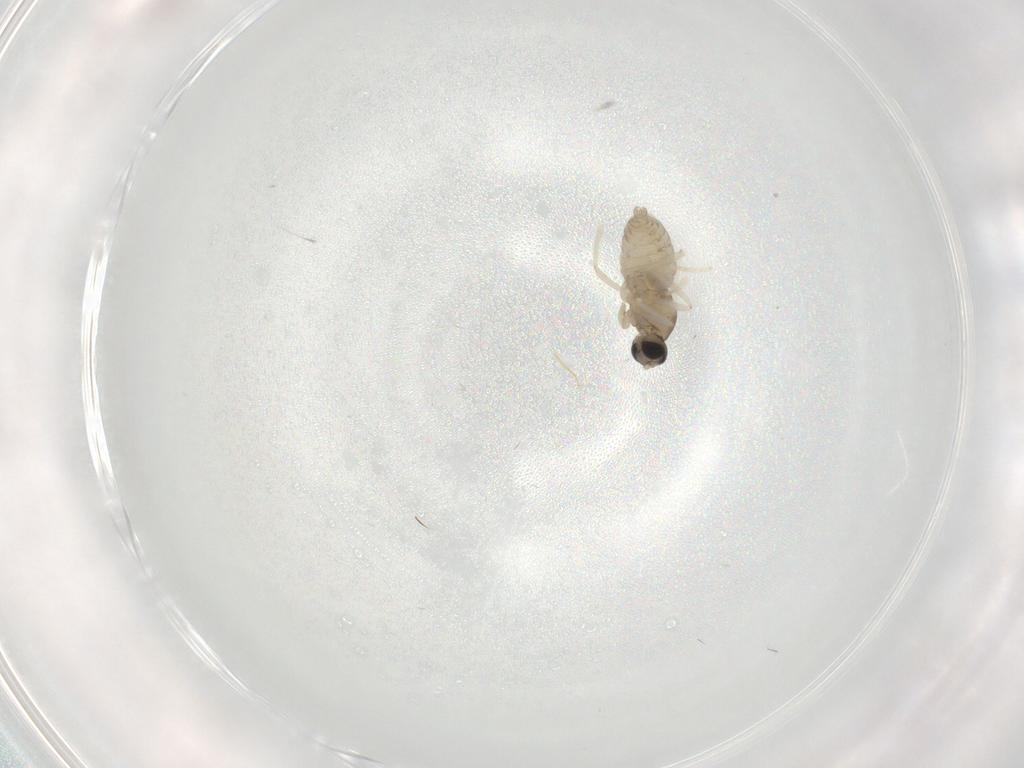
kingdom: Animalia
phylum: Arthropoda
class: Insecta
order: Diptera
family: Cecidomyiidae
